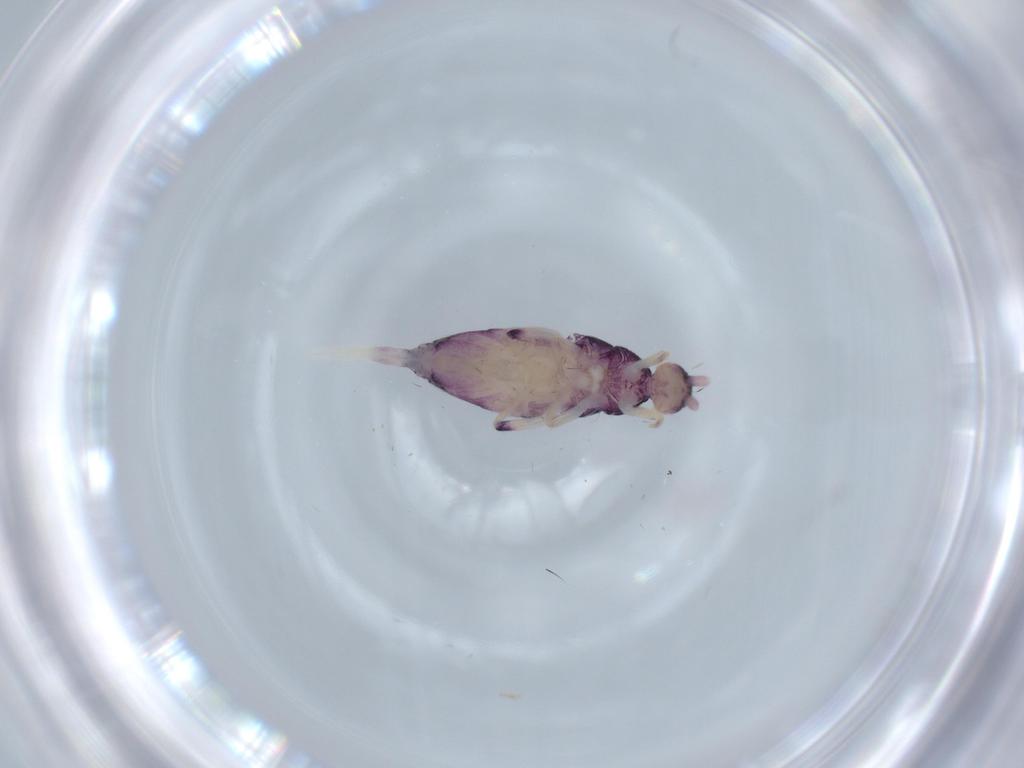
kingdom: Animalia
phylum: Arthropoda
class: Collembola
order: Entomobryomorpha
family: Entomobryidae
